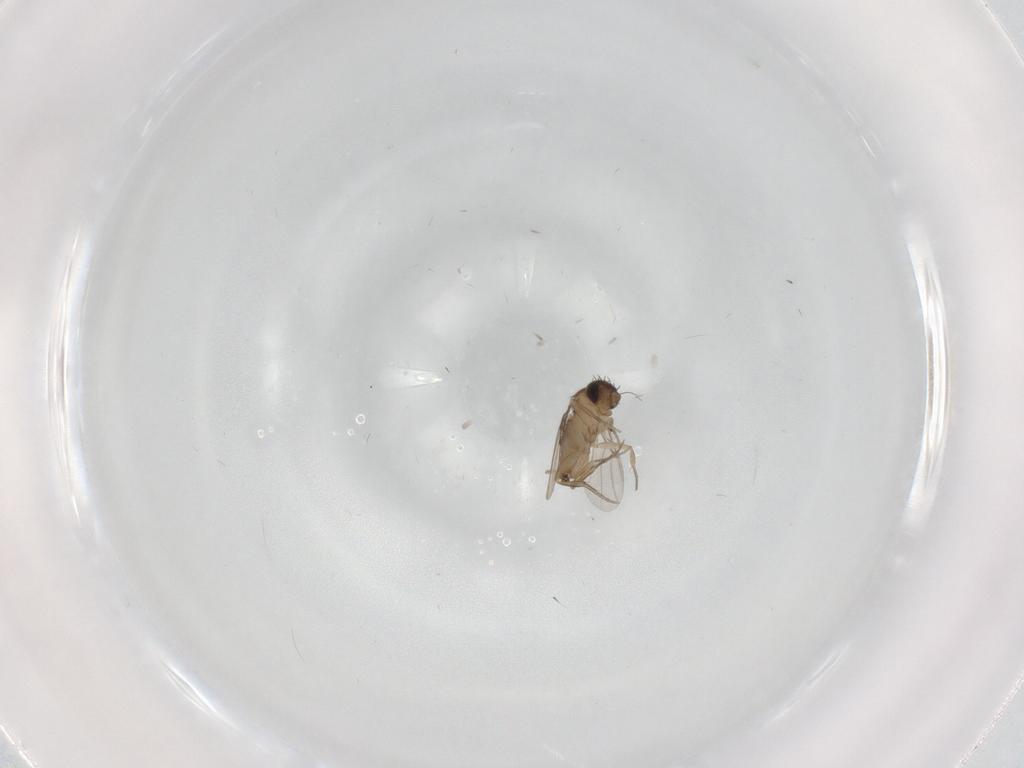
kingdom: Animalia
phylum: Arthropoda
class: Insecta
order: Diptera
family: Phoridae
